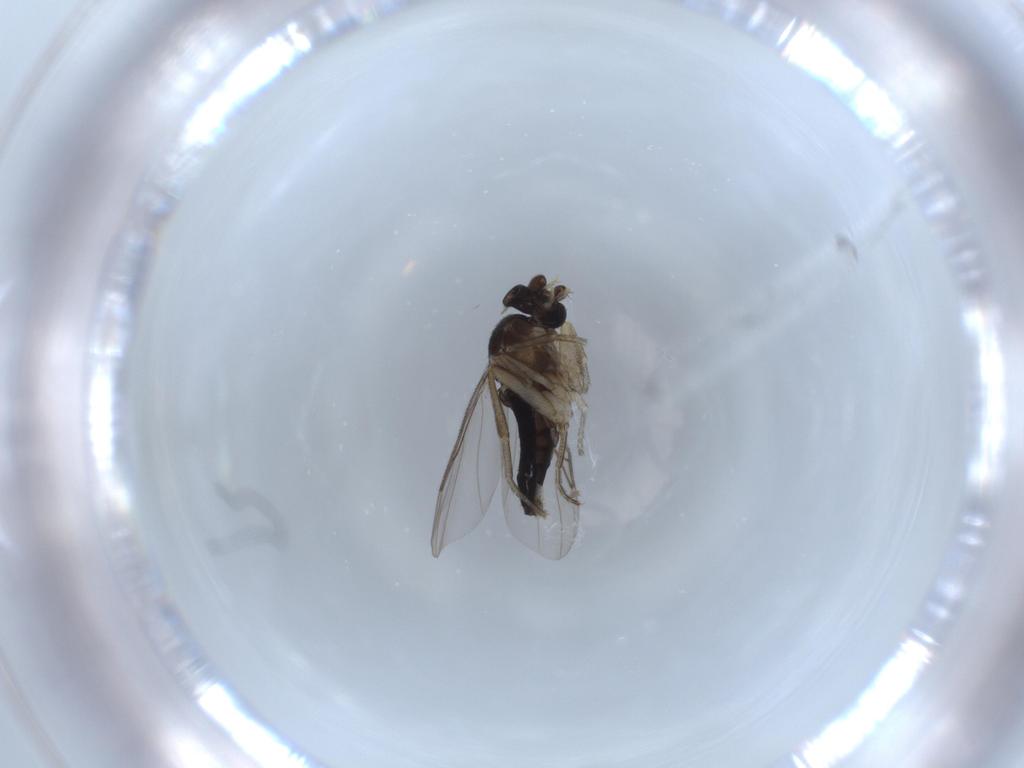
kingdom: Animalia
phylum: Arthropoda
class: Insecta
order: Diptera
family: Phoridae
